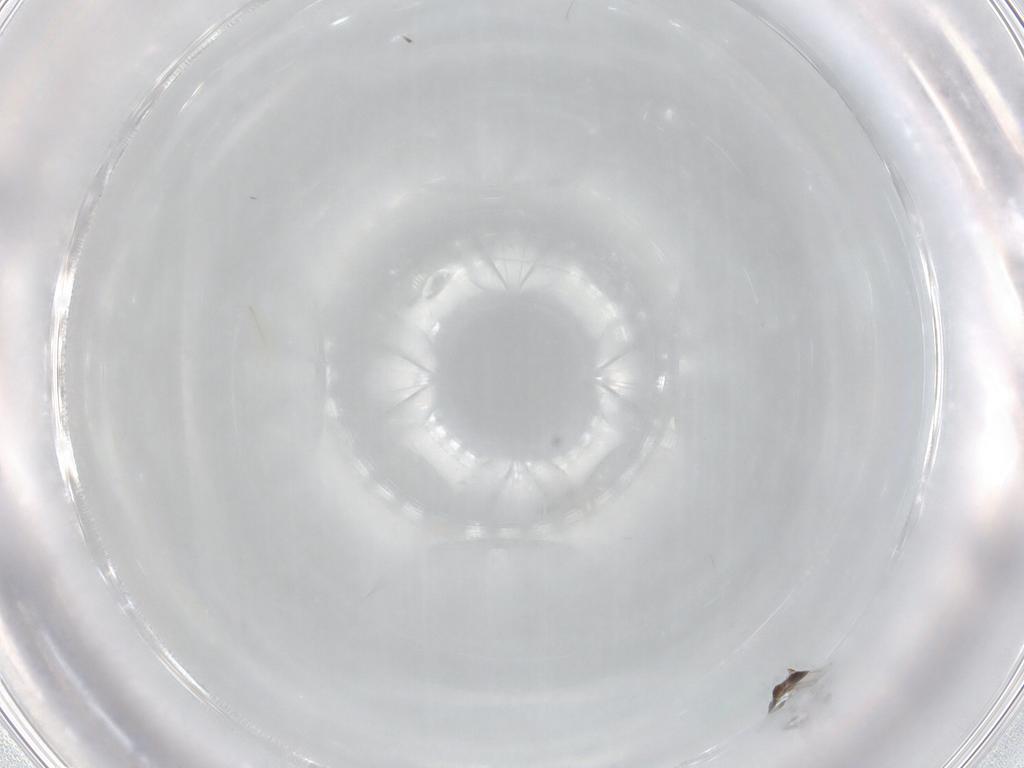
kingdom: Animalia
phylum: Arthropoda
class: Insecta
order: Coleoptera
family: Curculionidae
